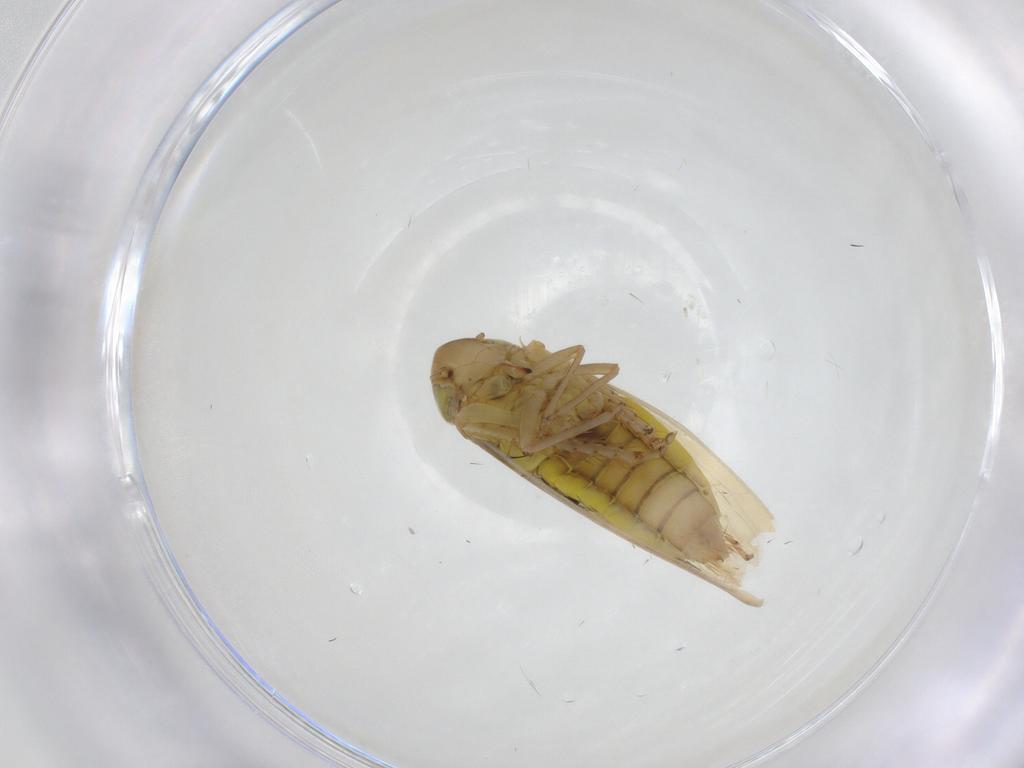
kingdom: Animalia
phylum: Arthropoda
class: Insecta
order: Hemiptera
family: Cicadellidae
